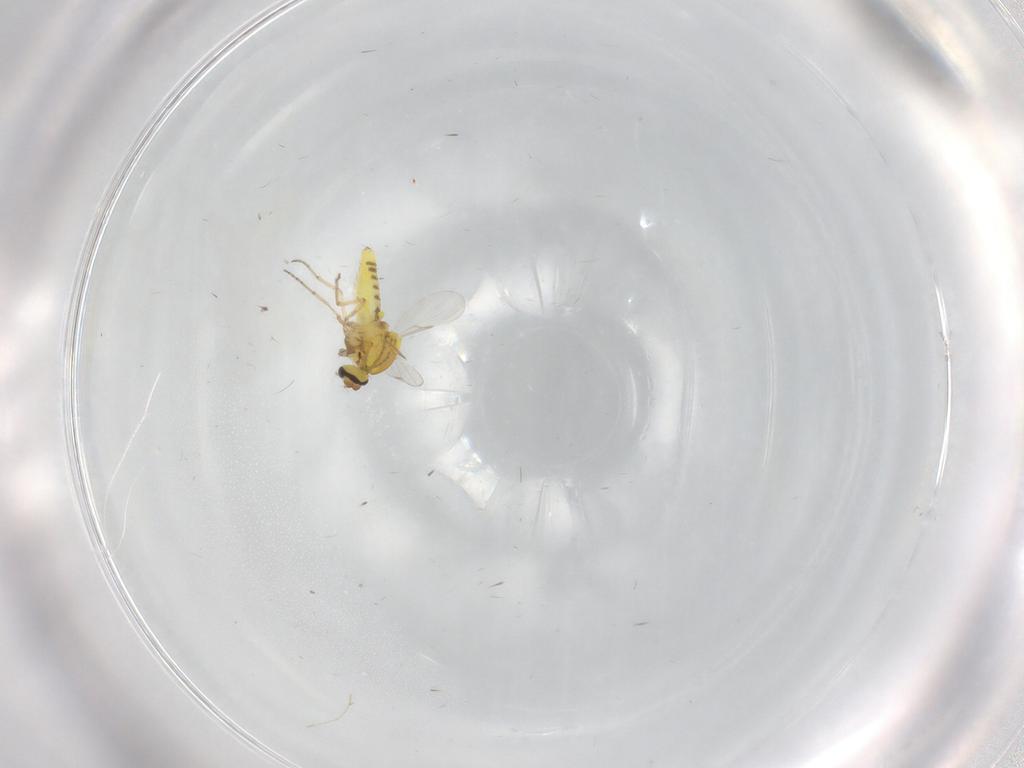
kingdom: Animalia
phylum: Arthropoda
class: Insecta
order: Diptera
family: Ceratopogonidae
